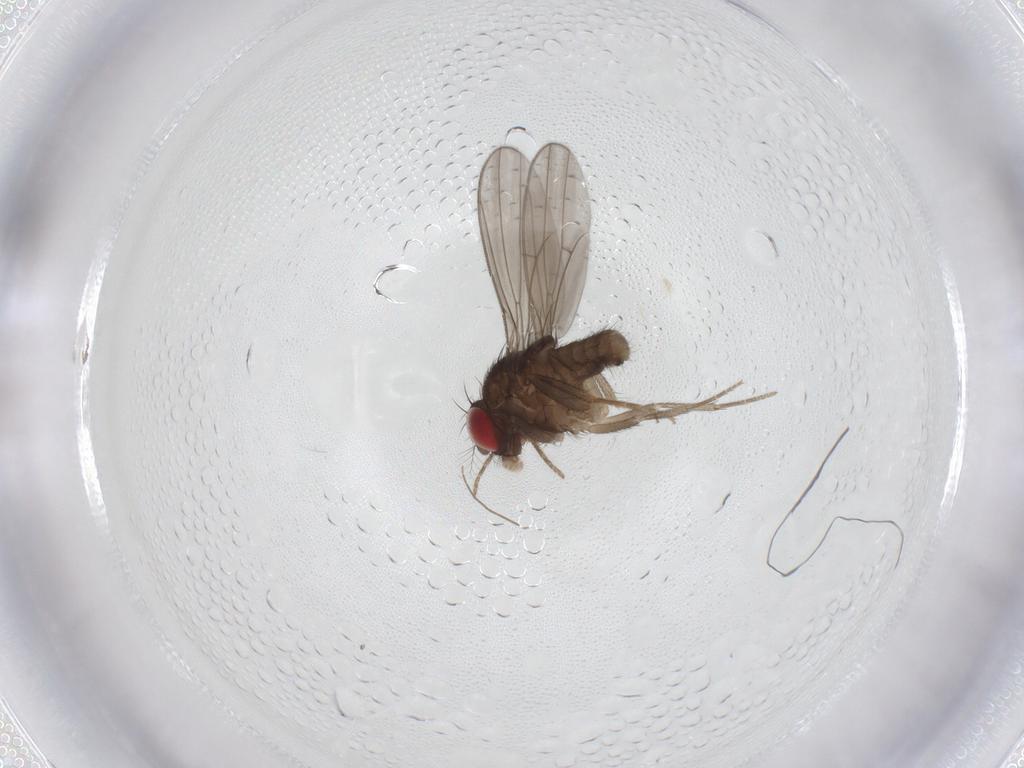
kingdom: Animalia
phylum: Arthropoda
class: Insecta
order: Diptera
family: Drosophilidae
